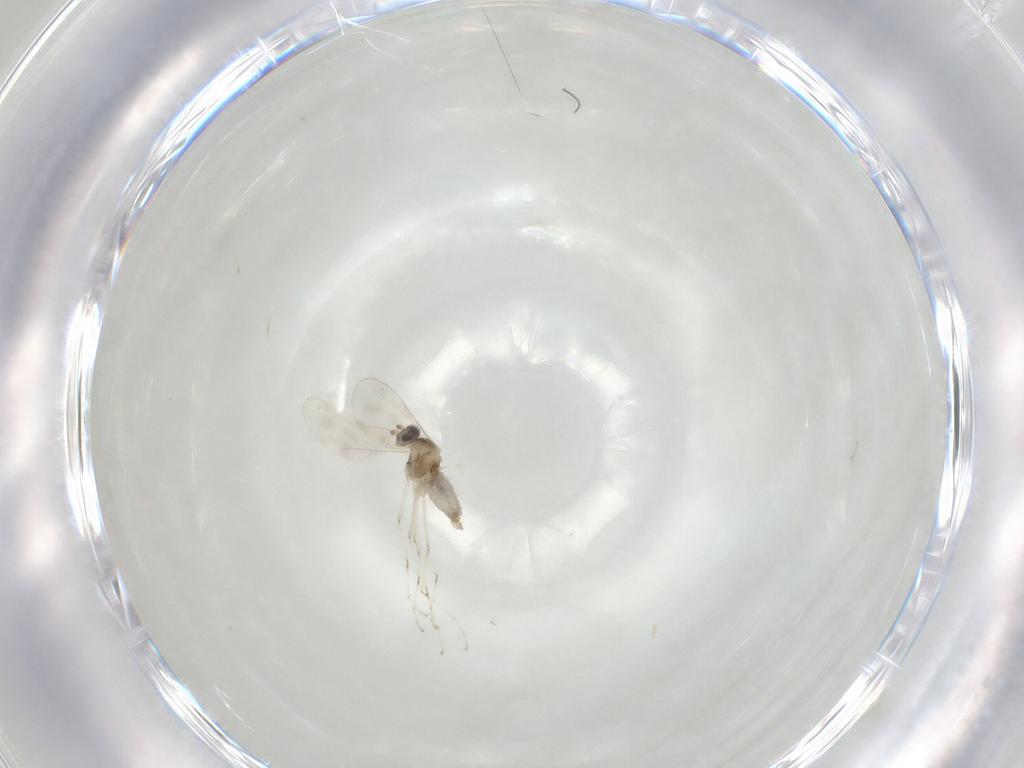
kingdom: Animalia
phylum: Arthropoda
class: Insecta
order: Diptera
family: Cecidomyiidae
